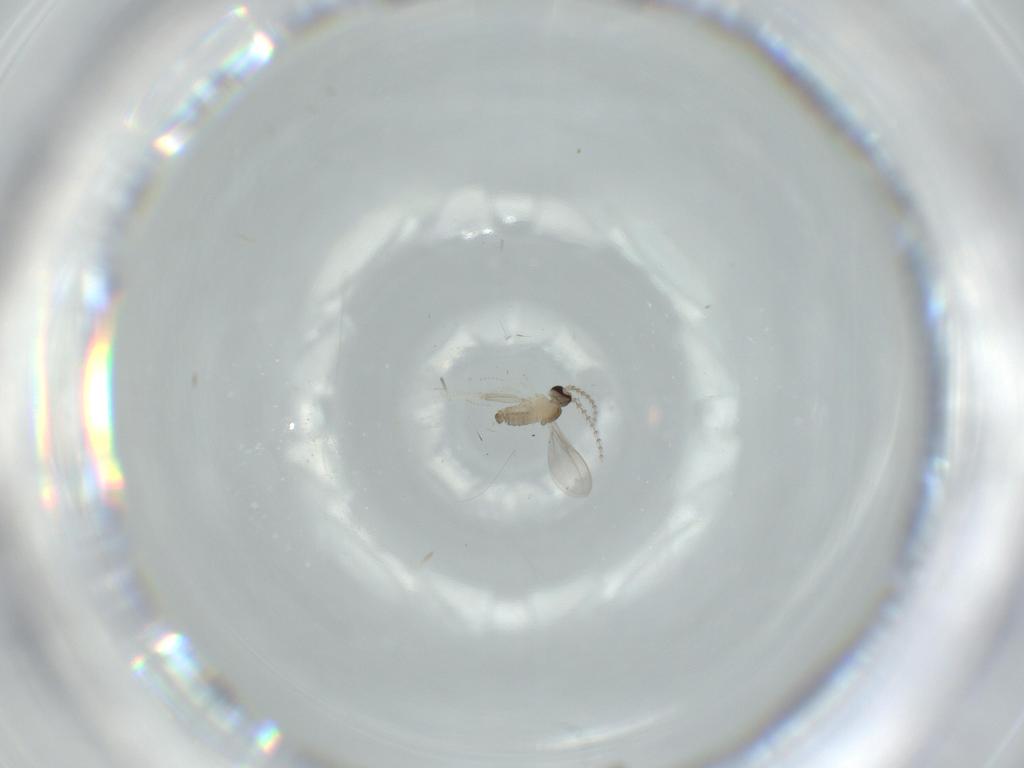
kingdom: Animalia
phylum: Arthropoda
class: Insecta
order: Diptera
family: Cecidomyiidae
